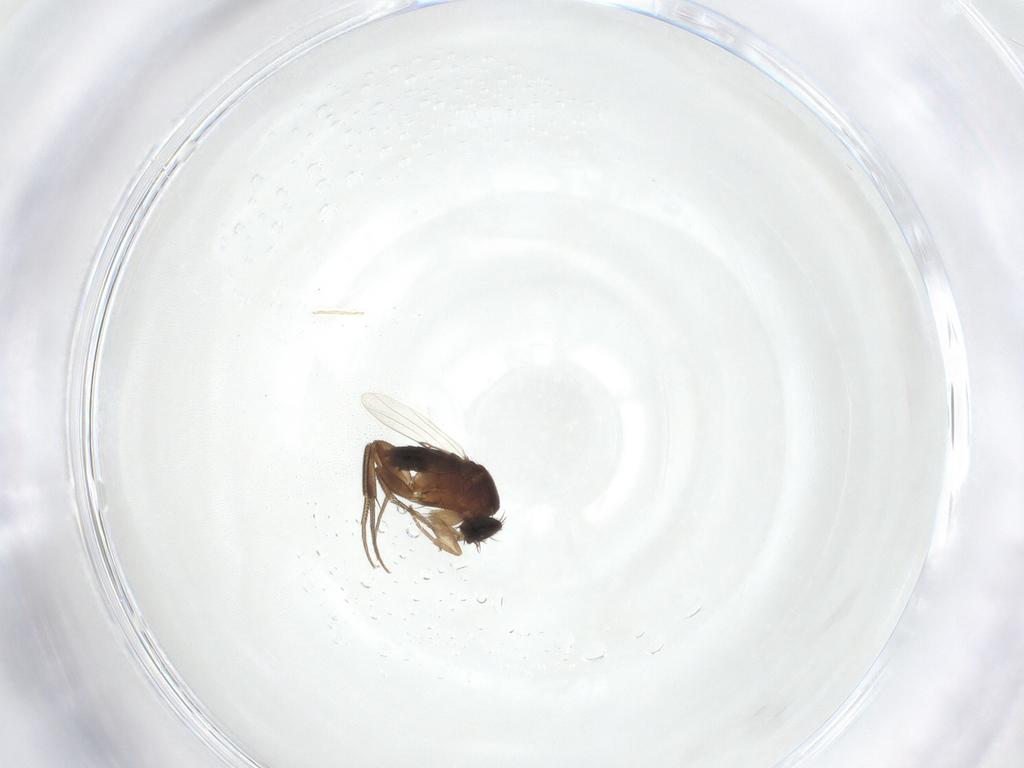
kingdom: Animalia
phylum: Arthropoda
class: Insecta
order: Diptera
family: Phoridae
